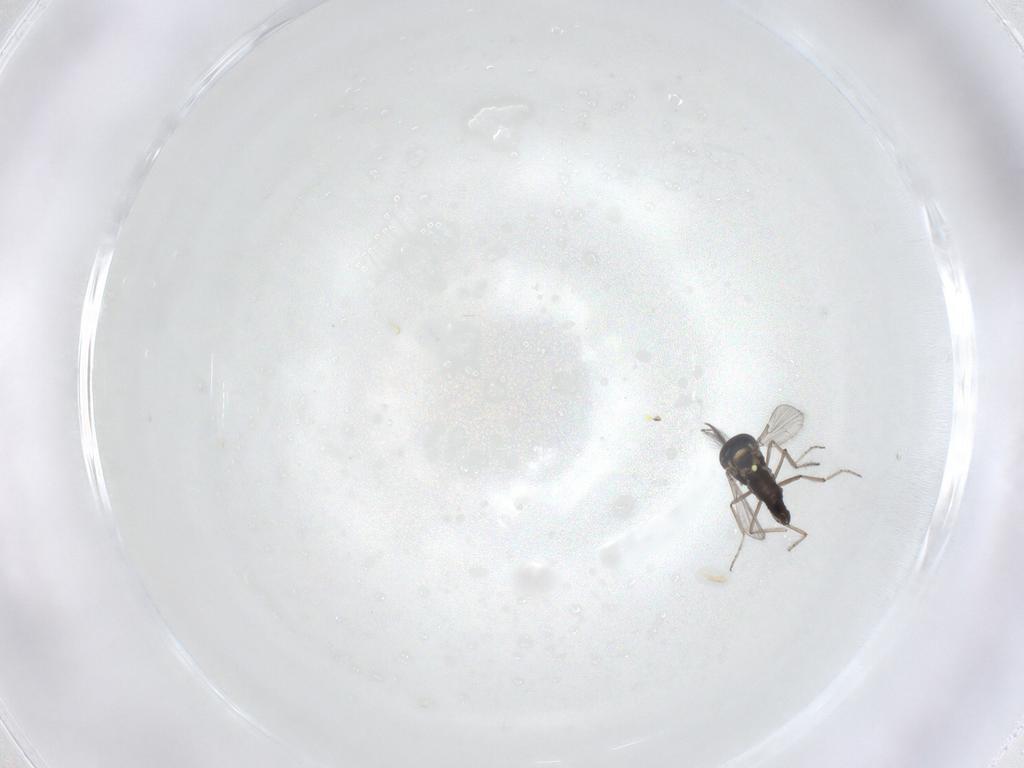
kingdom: Animalia
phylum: Arthropoda
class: Insecta
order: Diptera
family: Ceratopogonidae
